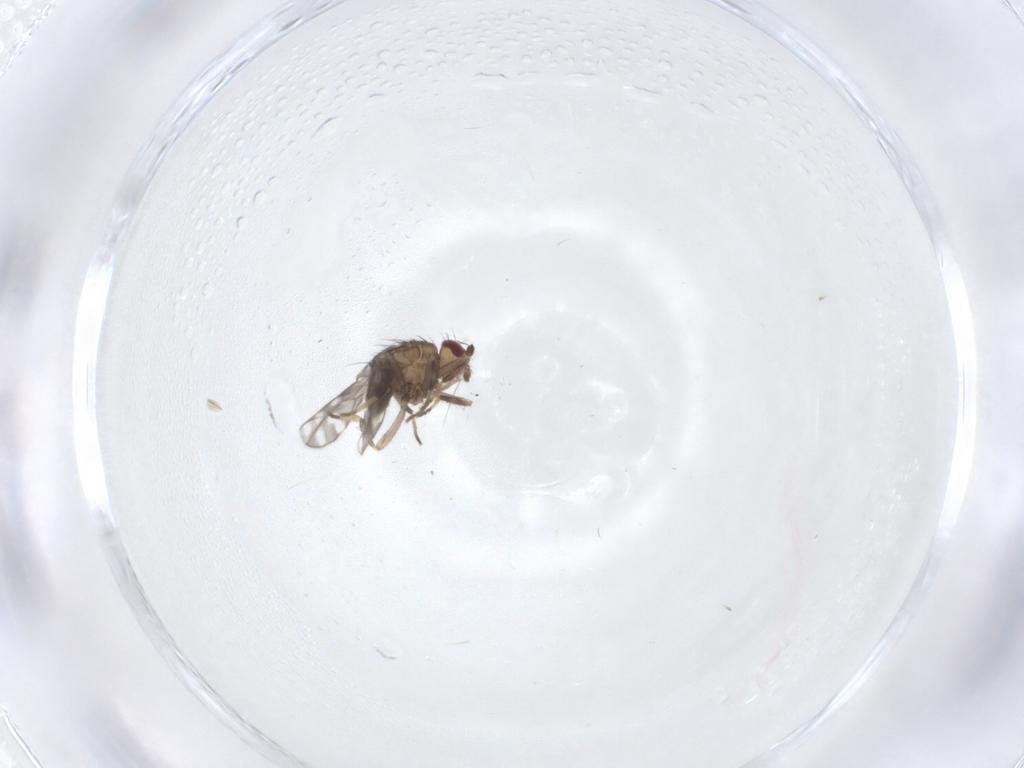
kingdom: Animalia
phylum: Arthropoda
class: Insecta
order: Diptera
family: Sphaeroceridae
